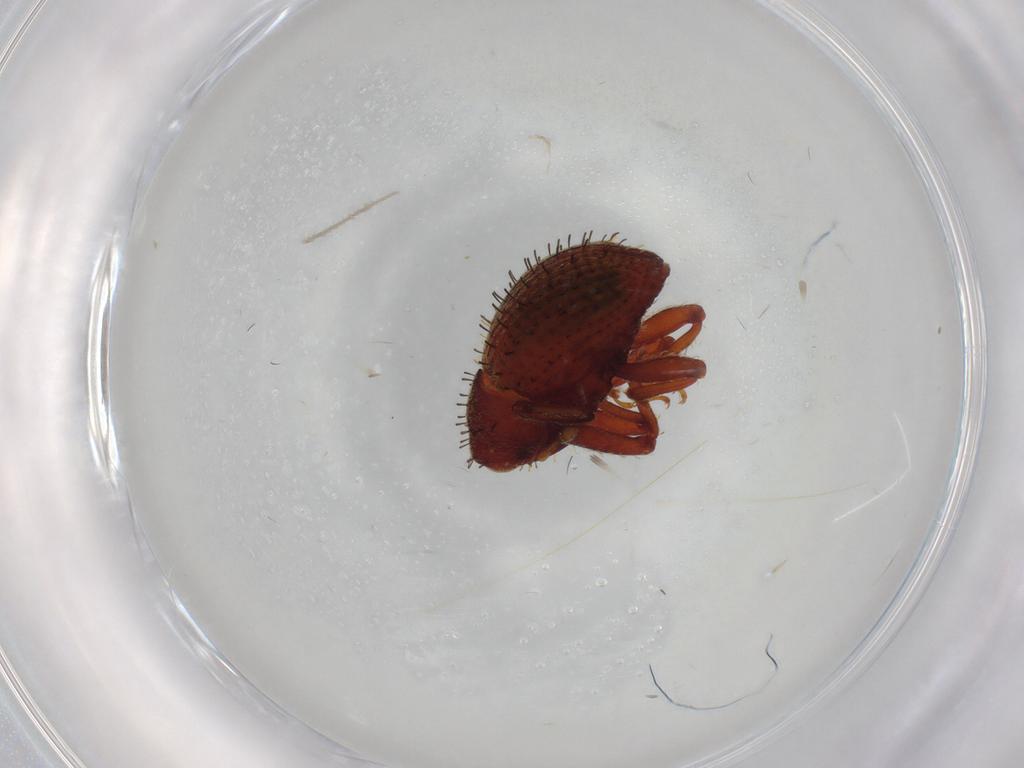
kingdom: Animalia
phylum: Arthropoda
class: Insecta
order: Coleoptera
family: Curculionidae
